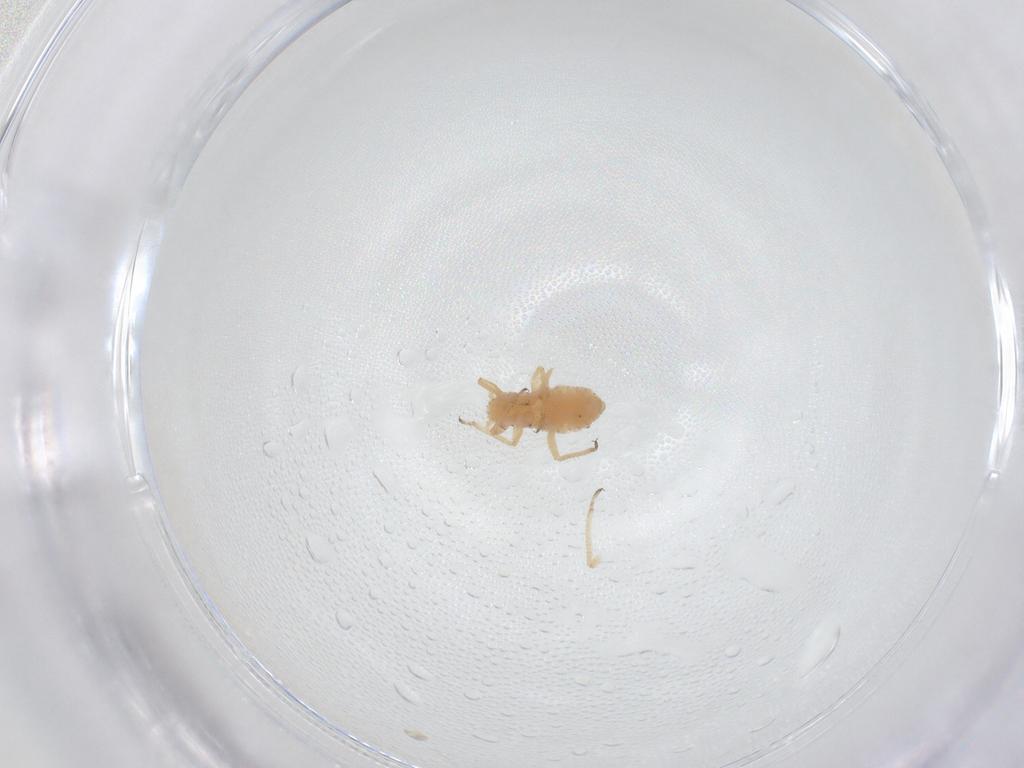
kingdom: Animalia
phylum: Arthropoda
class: Insecta
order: Hemiptera
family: Aphididae
